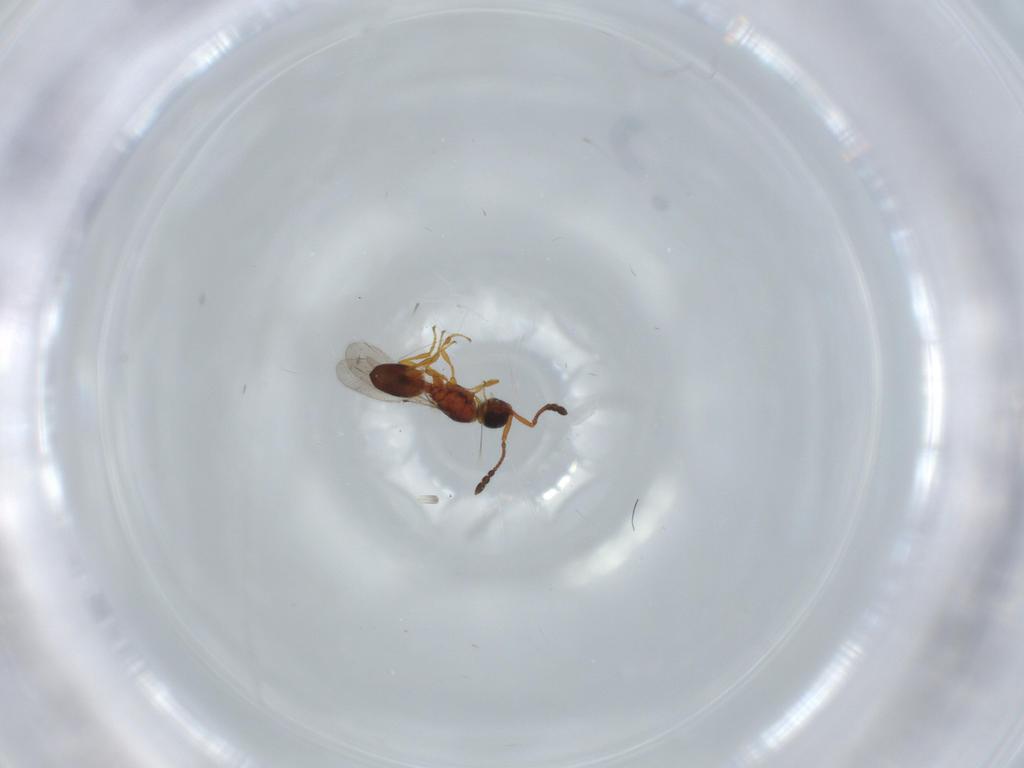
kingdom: Animalia
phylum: Arthropoda
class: Insecta
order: Hymenoptera
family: Diapriidae
